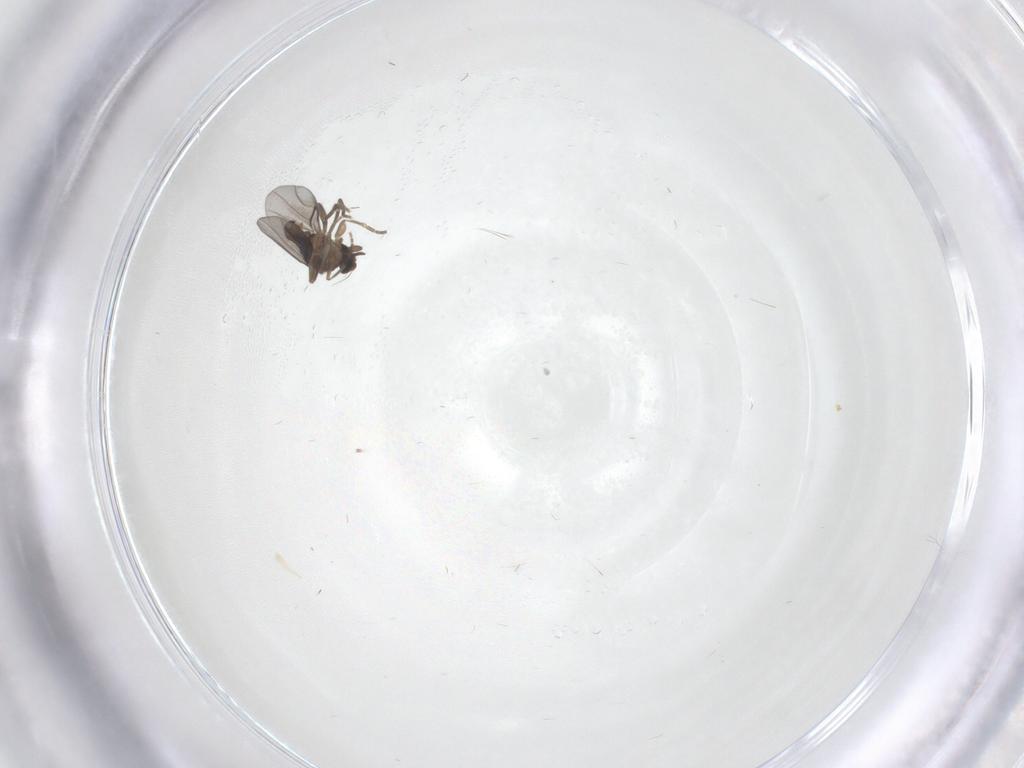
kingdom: Animalia
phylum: Arthropoda
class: Insecta
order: Diptera
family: Psychodidae
